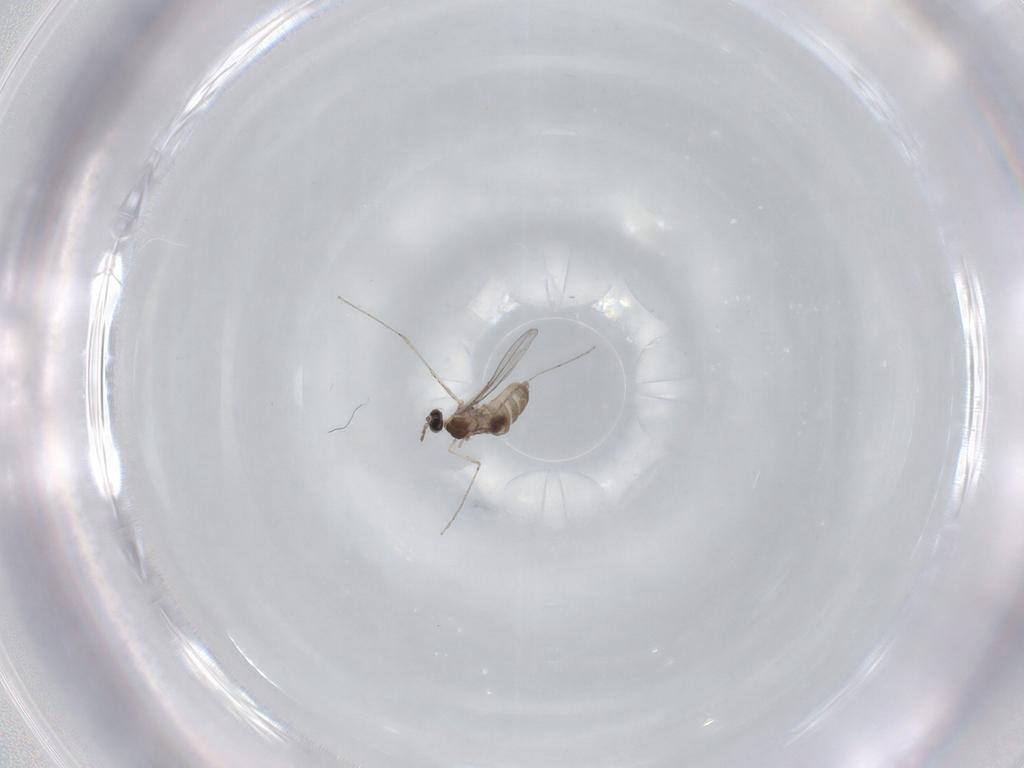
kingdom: Animalia
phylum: Arthropoda
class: Insecta
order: Diptera
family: Cecidomyiidae
